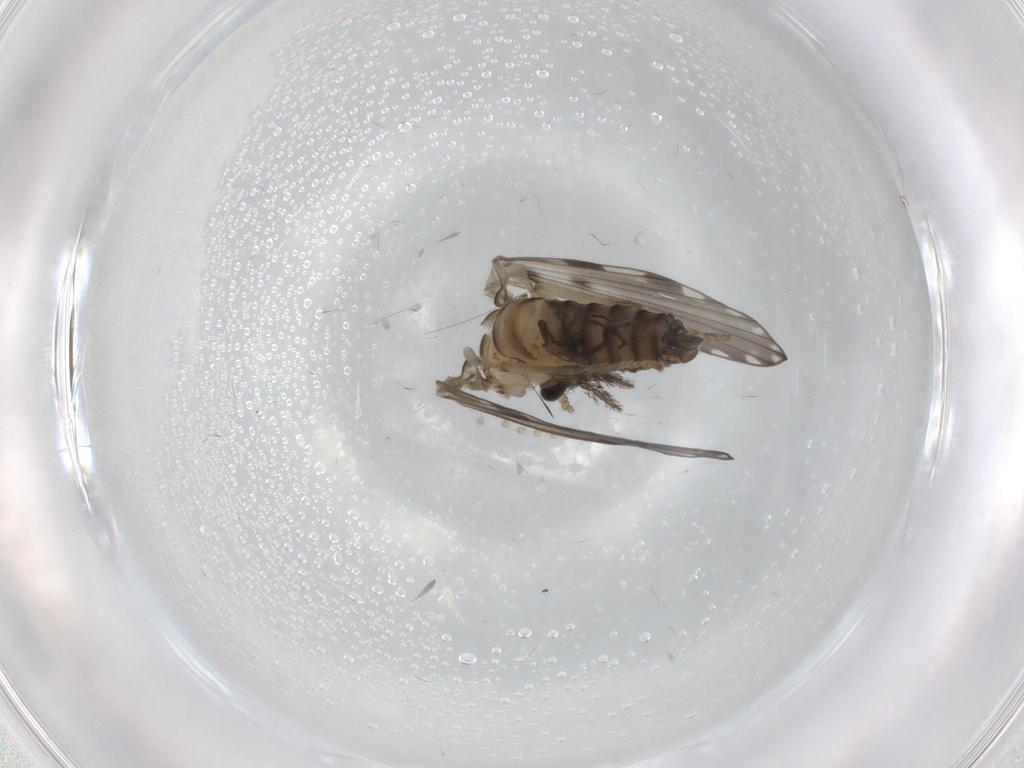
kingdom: Animalia
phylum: Arthropoda
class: Insecta
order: Diptera
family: Psychodidae
